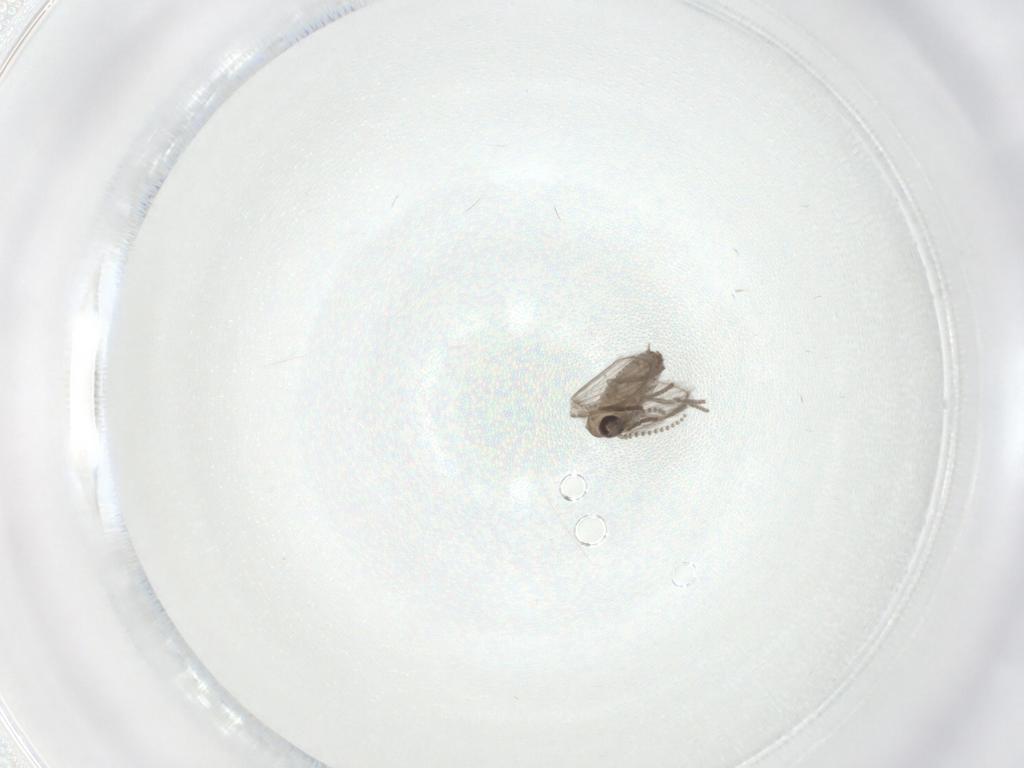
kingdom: Animalia
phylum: Arthropoda
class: Insecta
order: Diptera
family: Psychodidae
